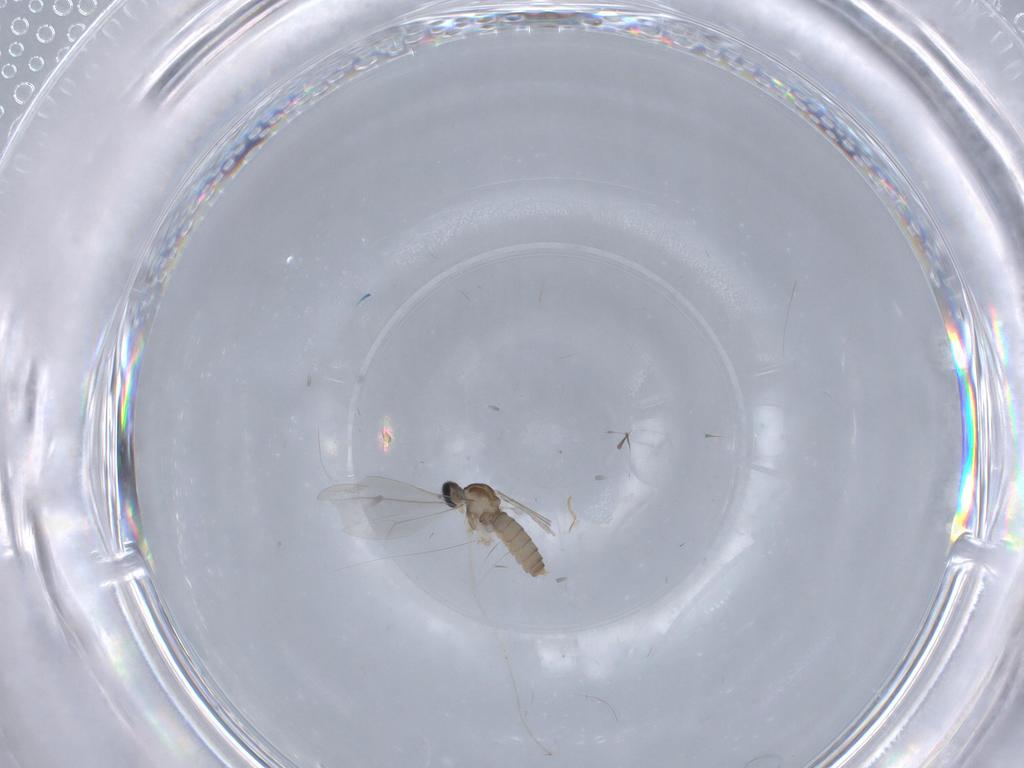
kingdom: Animalia
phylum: Arthropoda
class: Insecta
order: Diptera
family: Cecidomyiidae
